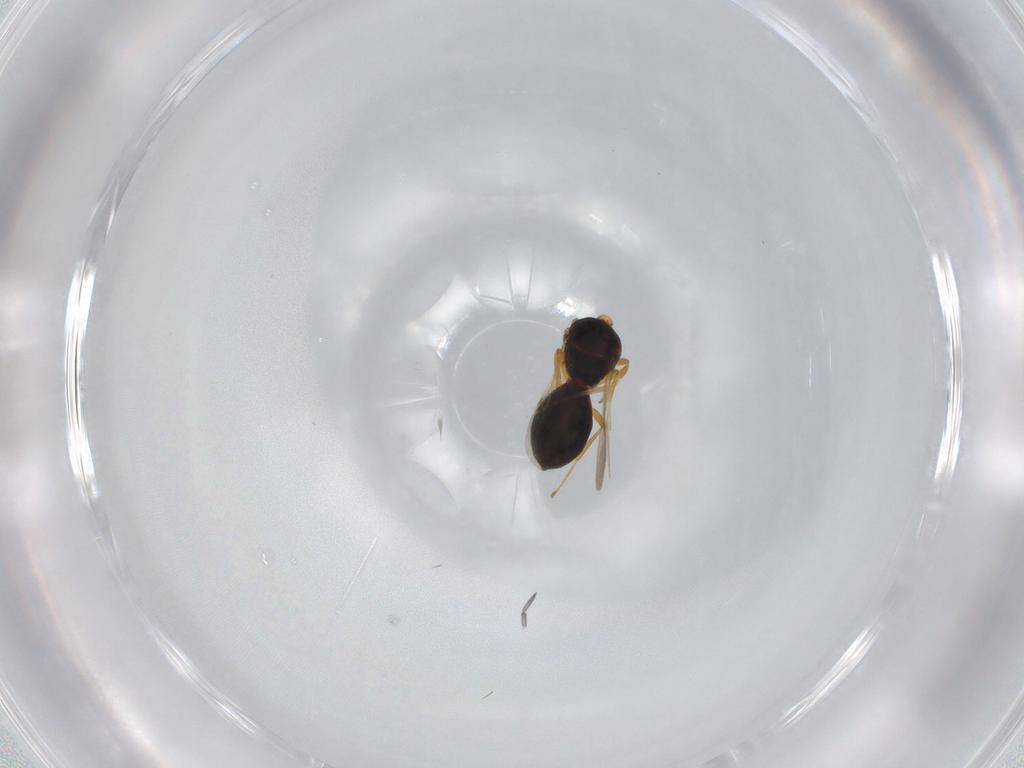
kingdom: Animalia
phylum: Arthropoda
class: Insecta
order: Hymenoptera
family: Scelionidae
